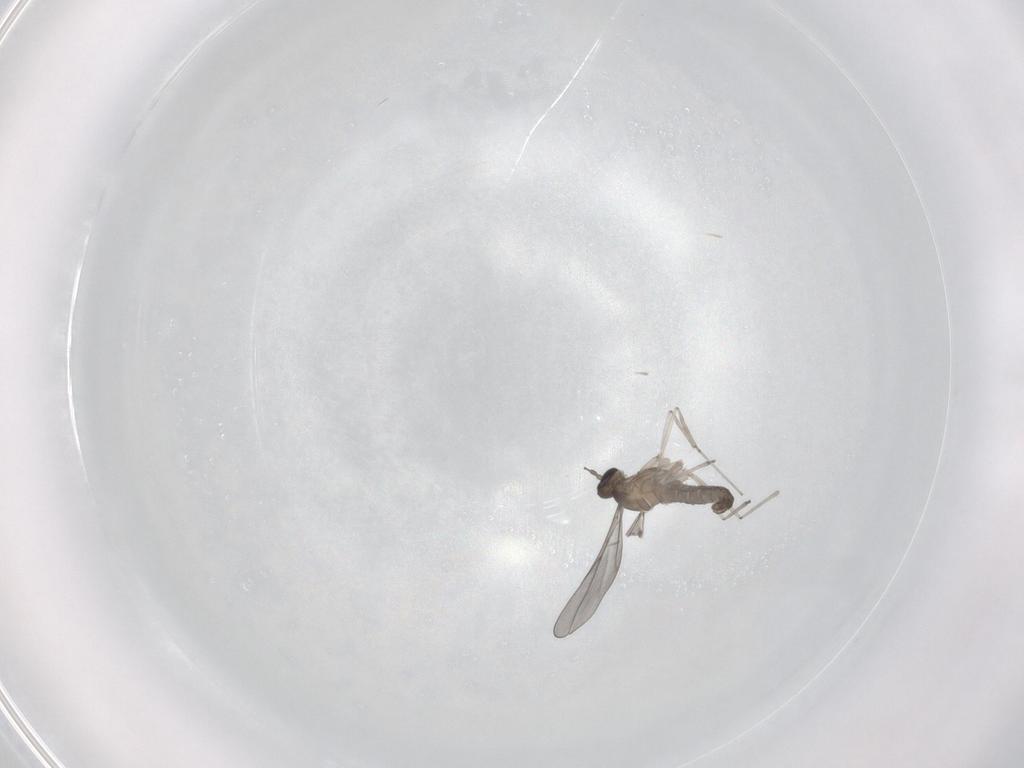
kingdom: Animalia
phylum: Arthropoda
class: Insecta
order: Diptera
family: Cecidomyiidae
